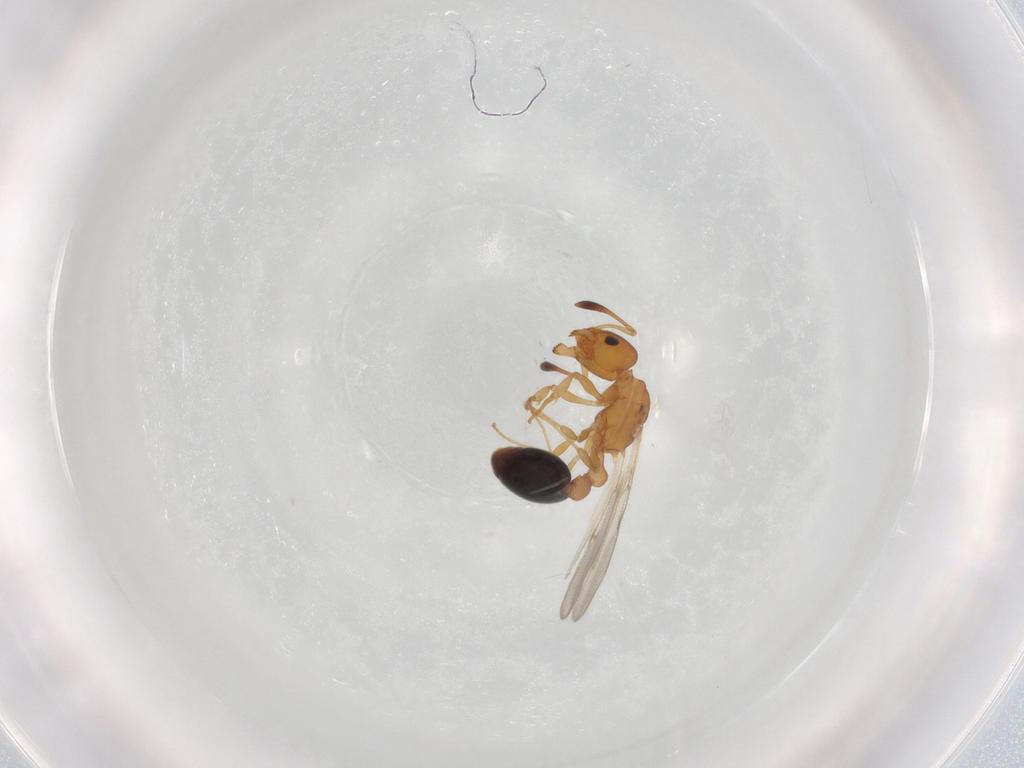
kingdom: Animalia
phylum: Arthropoda
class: Insecta
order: Hymenoptera
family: Formicidae
